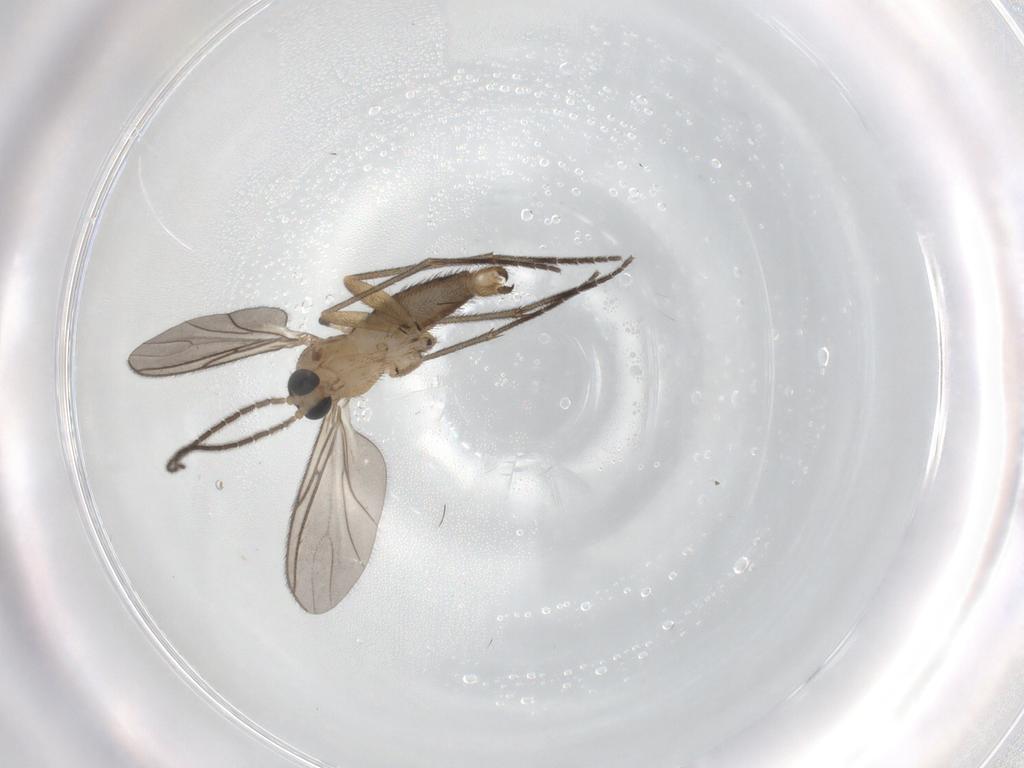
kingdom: Animalia
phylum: Arthropoda
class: Insecta
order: Diptera
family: Sciaridae
